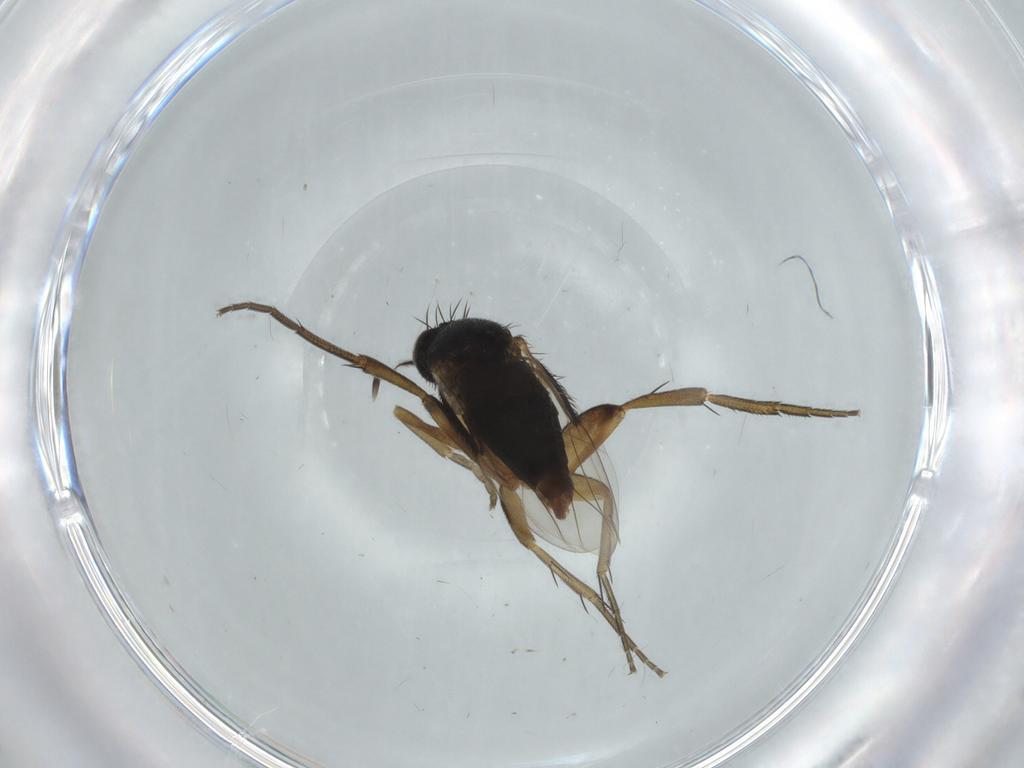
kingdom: Animalia
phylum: Arthropoda
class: Insecta
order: Diptera
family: Phoridae
